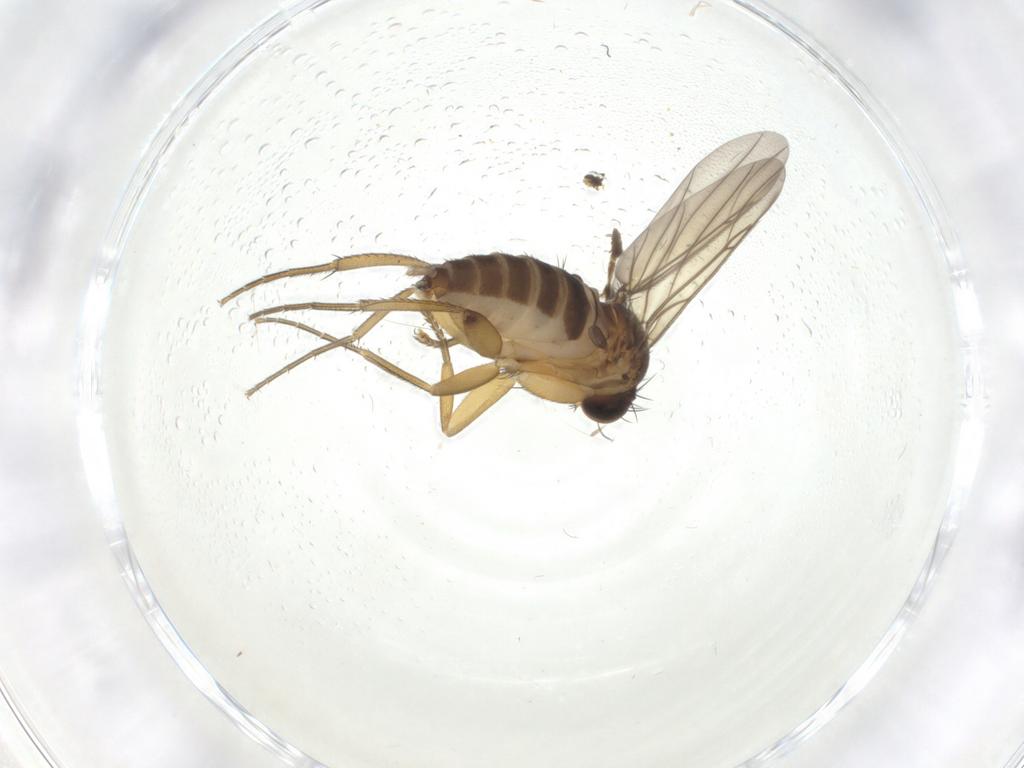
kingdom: Animalia
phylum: Arthropoda
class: Insecta
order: Diptera
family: Phoridae
